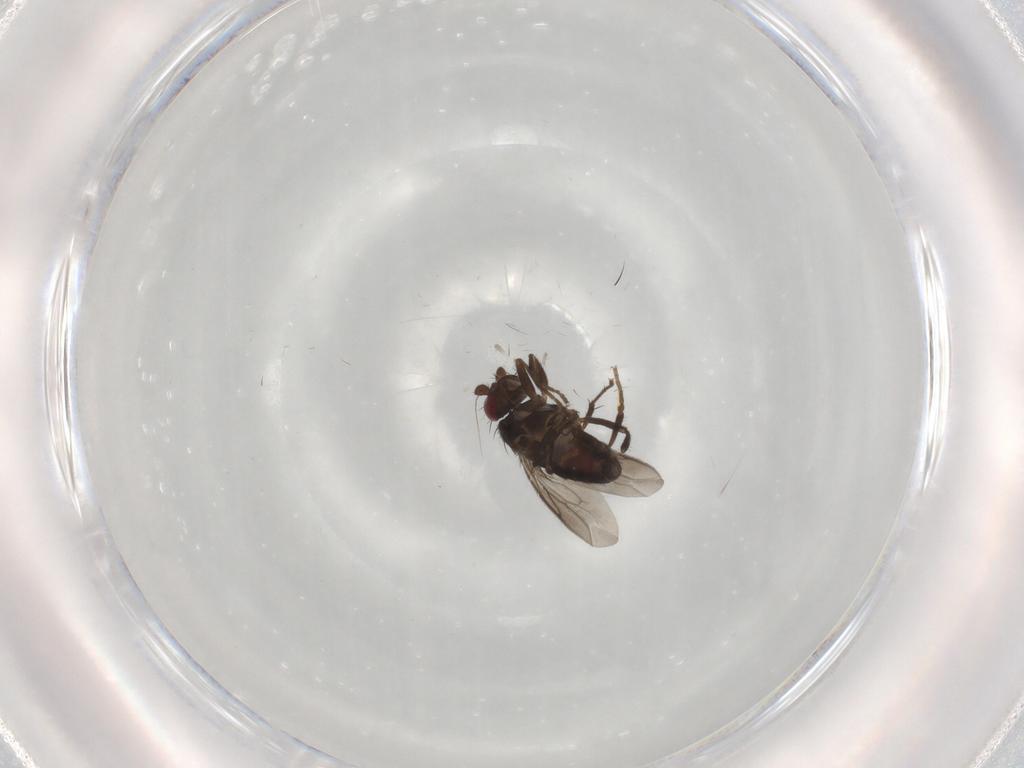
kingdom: Animalia
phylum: Arthropoda
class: Insecta
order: Diptera
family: Sphaeroceridae
